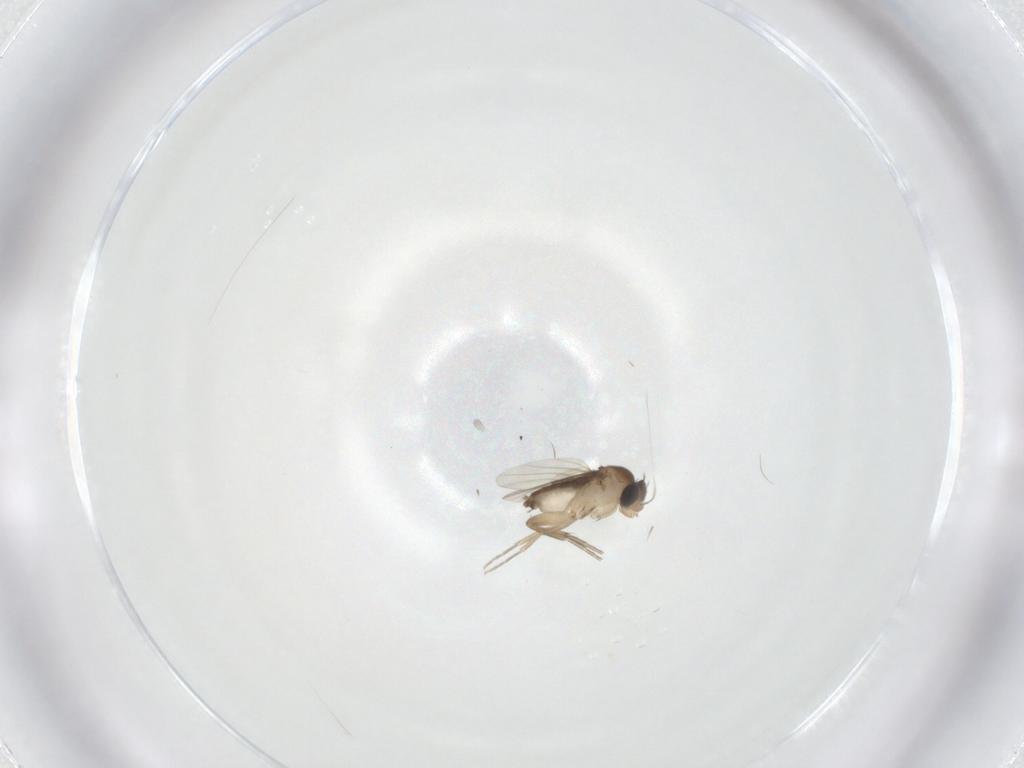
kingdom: Animalia
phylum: Arthropoda
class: Insecta
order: Diptera
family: Phoridae
